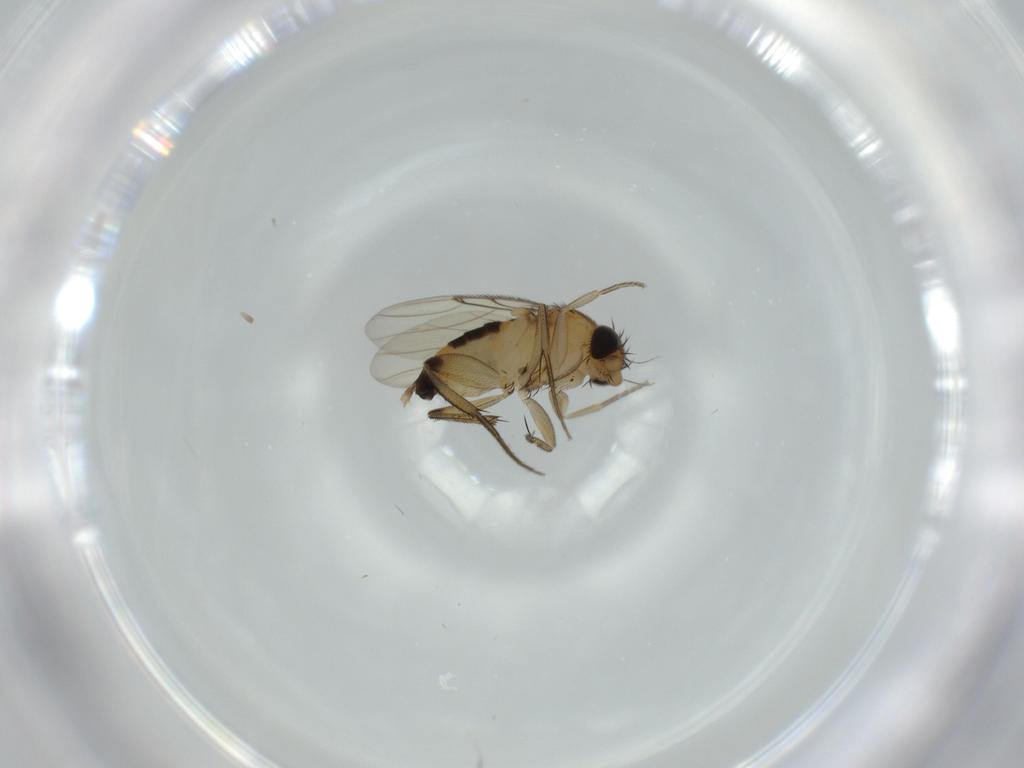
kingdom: Animalia
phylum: Arthropoda
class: Insecta
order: Diptera
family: Phoridae
